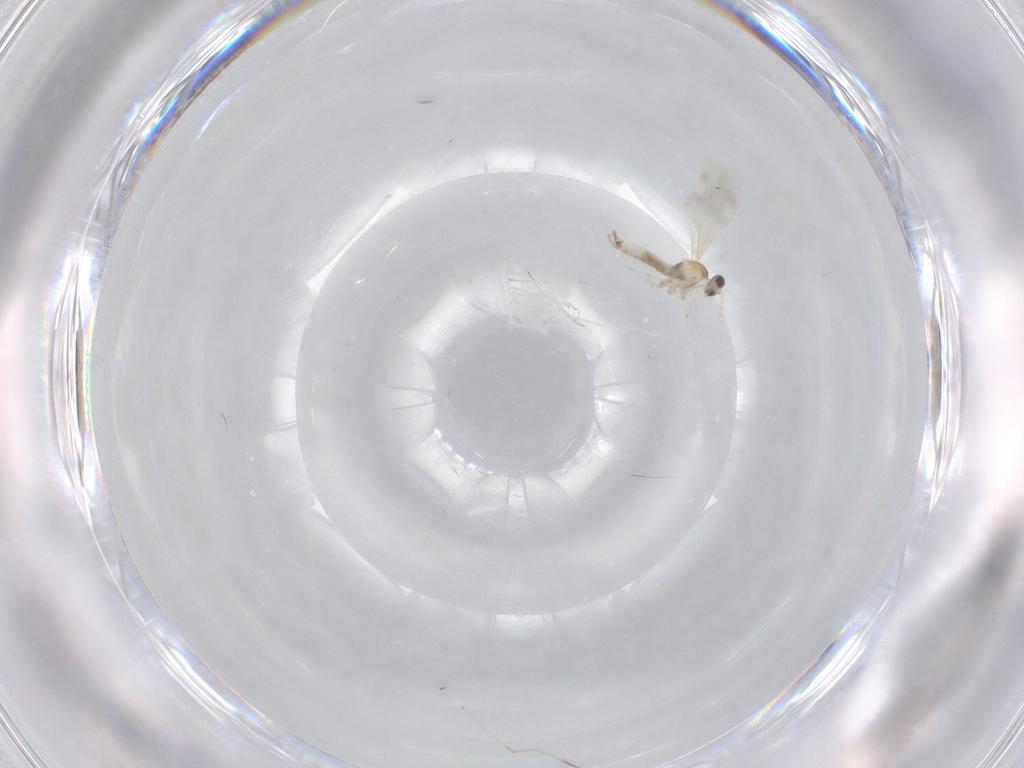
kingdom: Animalia
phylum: Arthropoda
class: Insecta
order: Diptera
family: Cecidomyiidae
